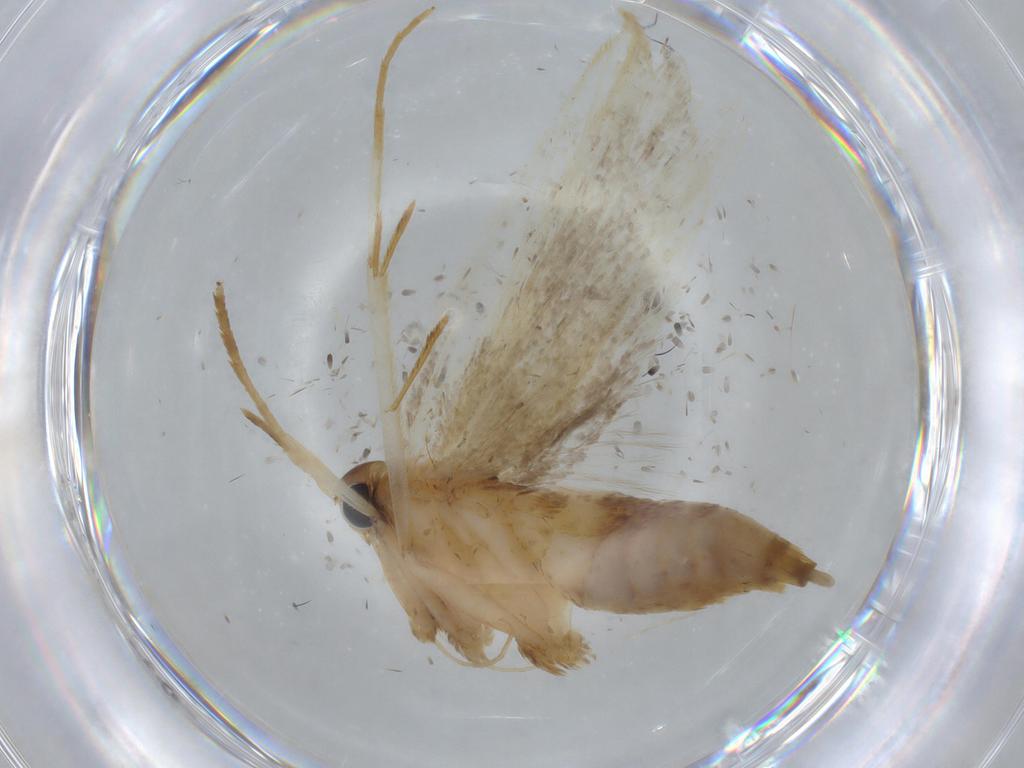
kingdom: Animalia
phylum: Arthropoda
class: Insecta
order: Lepidoptera
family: Lecithoceridae
